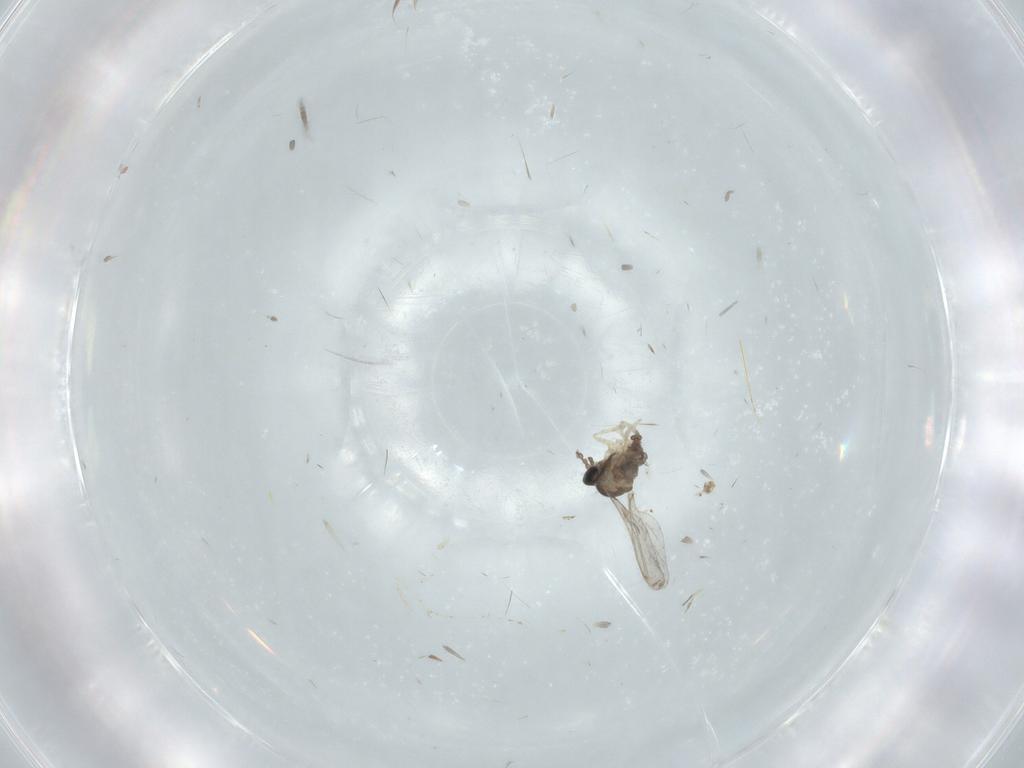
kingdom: Animalia
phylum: Arthropoda
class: Insecta
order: Diptera
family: Cecidomyiidae
